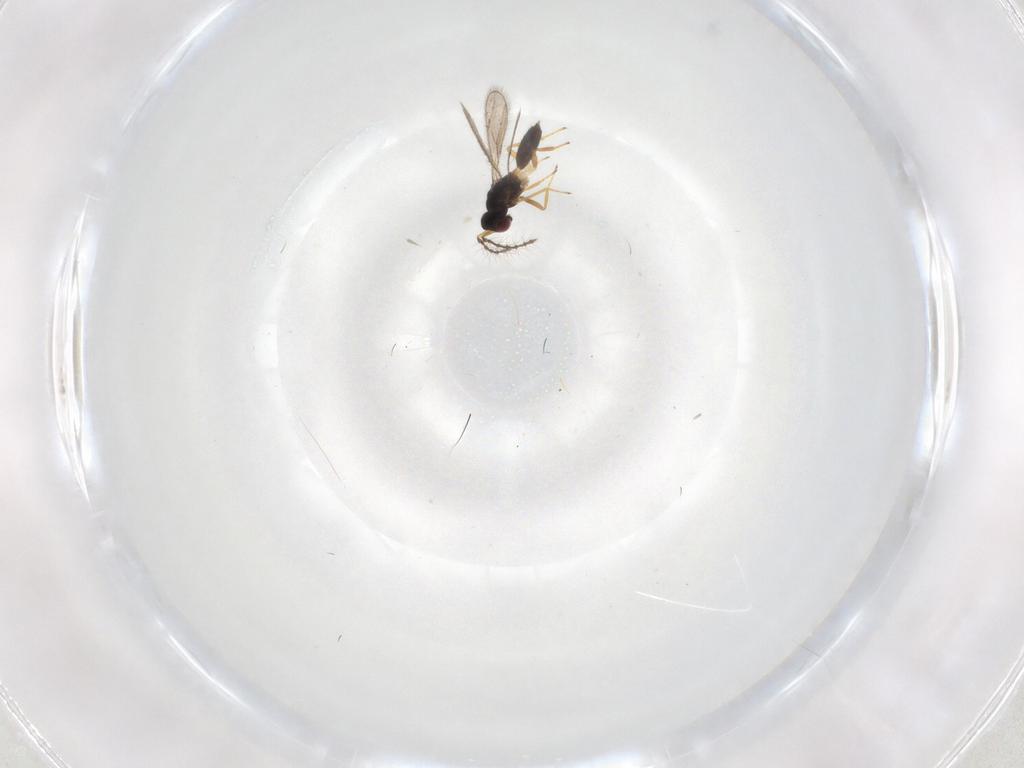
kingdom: Animalia
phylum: Arthropoda
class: Insecta
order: Hymenoptera
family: Eulophidae
